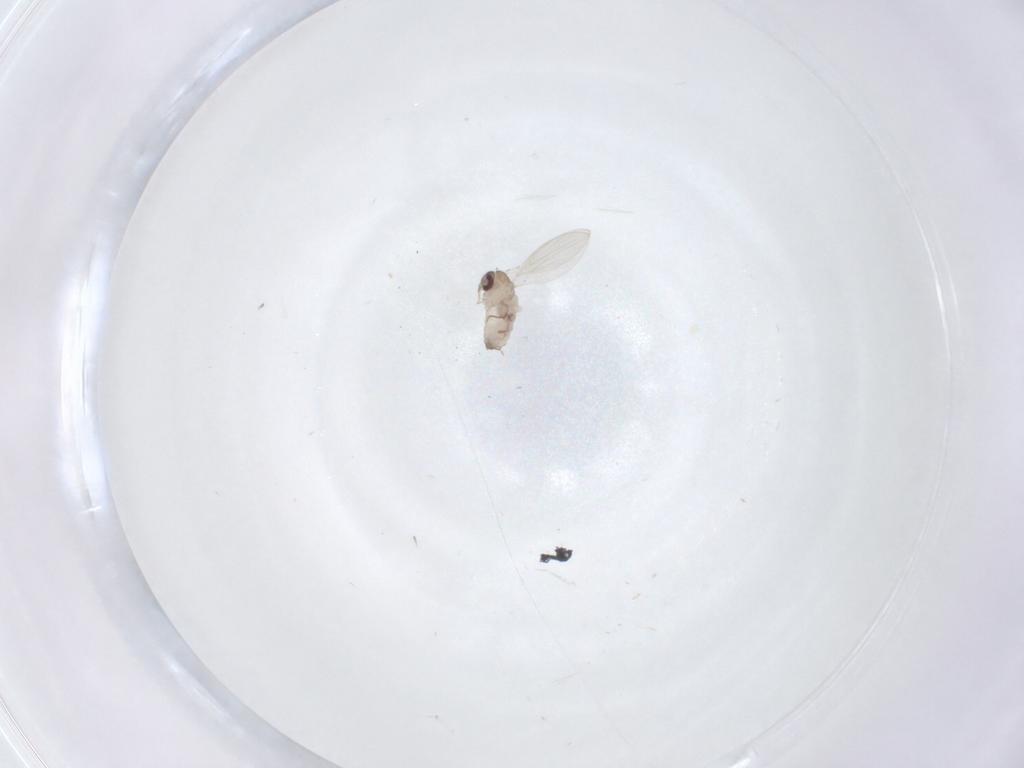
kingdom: Animalia
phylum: Arthropoda
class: Insecta
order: Diptera
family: Psychodidae
